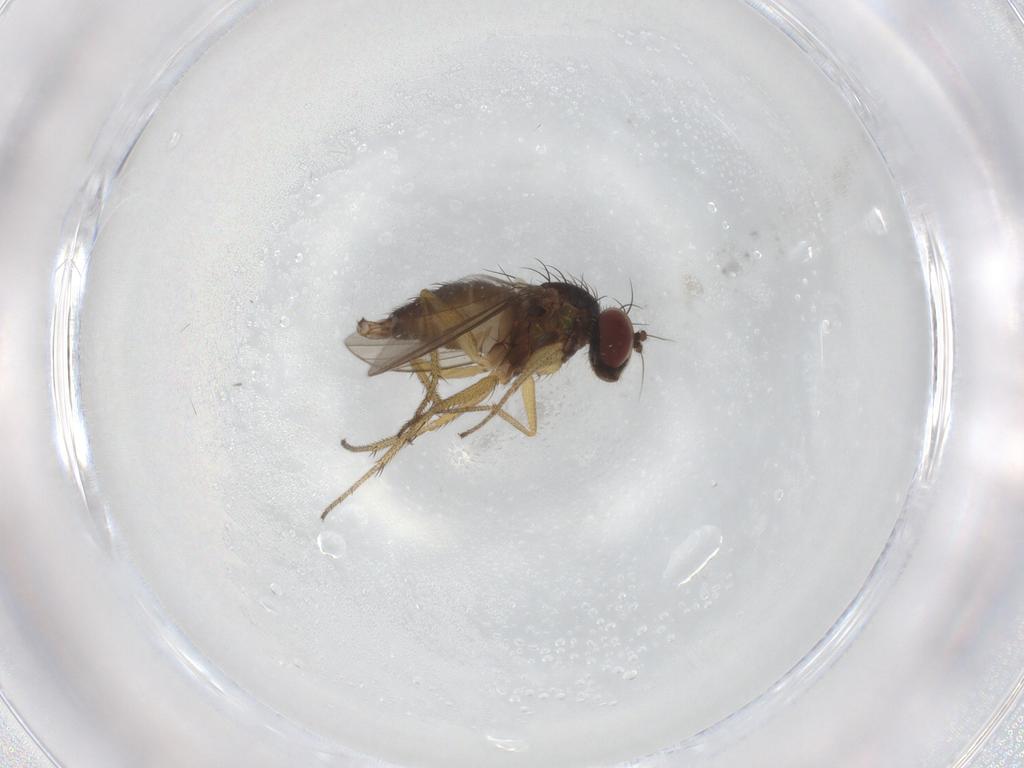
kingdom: Animalia
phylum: Arthropoda
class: Insecta
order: Diptera
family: Dolichopodidae
